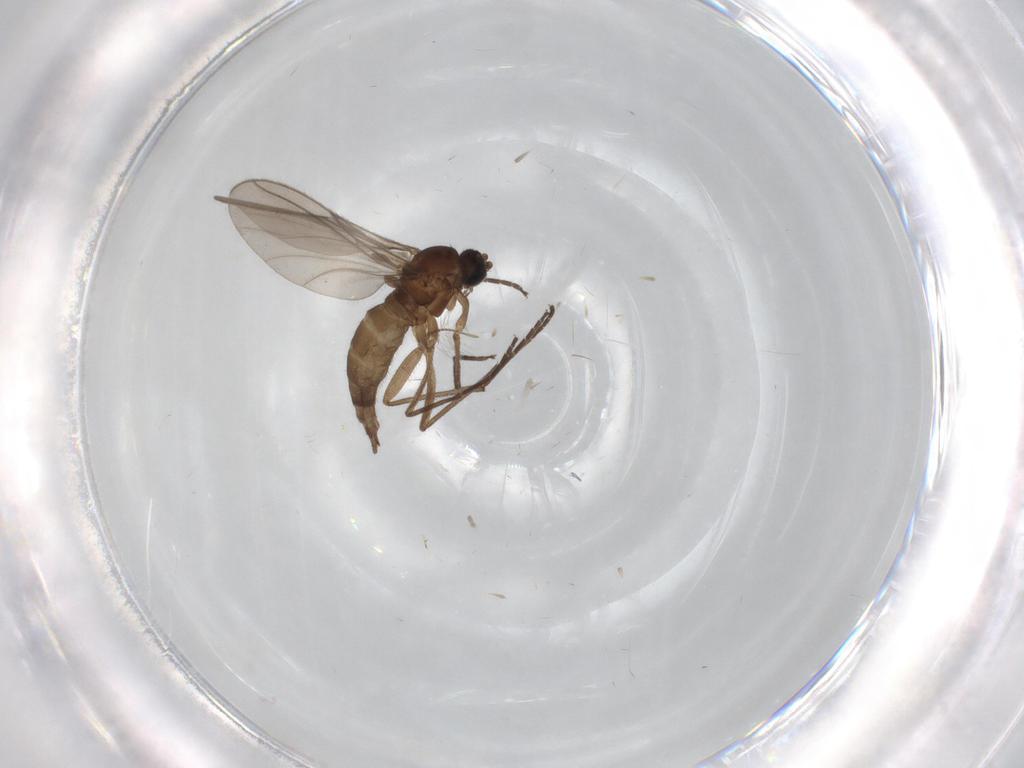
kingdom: Animalia
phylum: Arthropoda
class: Insecta
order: Diptera
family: Sciaridae
